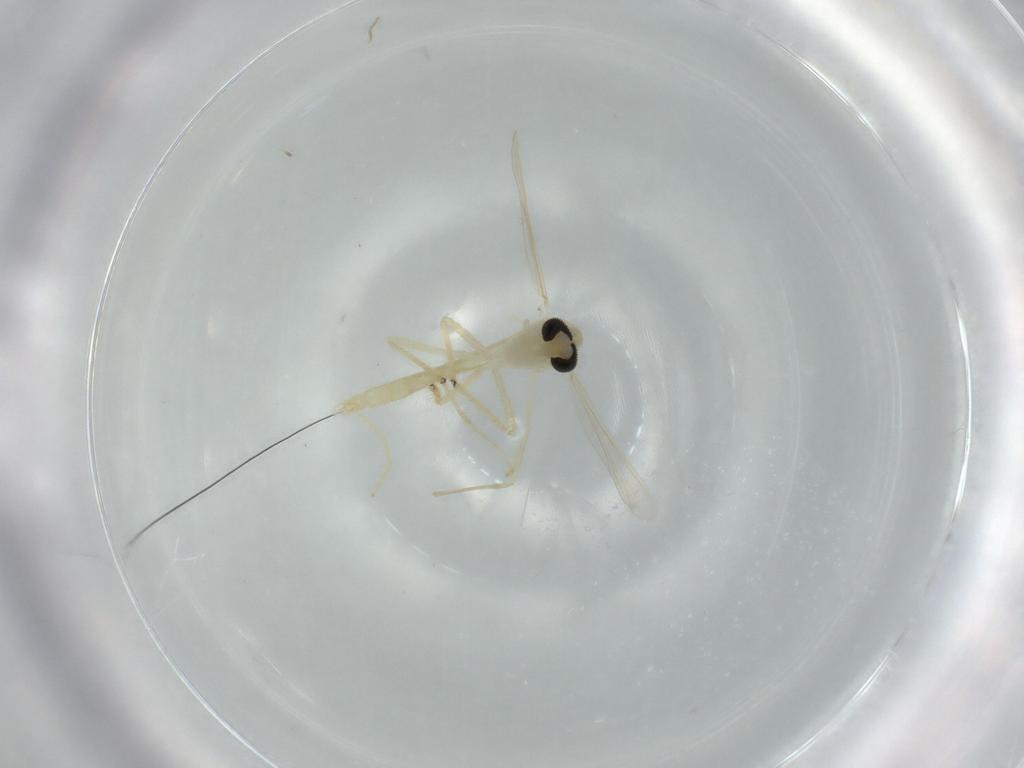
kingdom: Animalia
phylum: Arthropoda
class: Insecta
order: Diptera
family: Chironomidae
